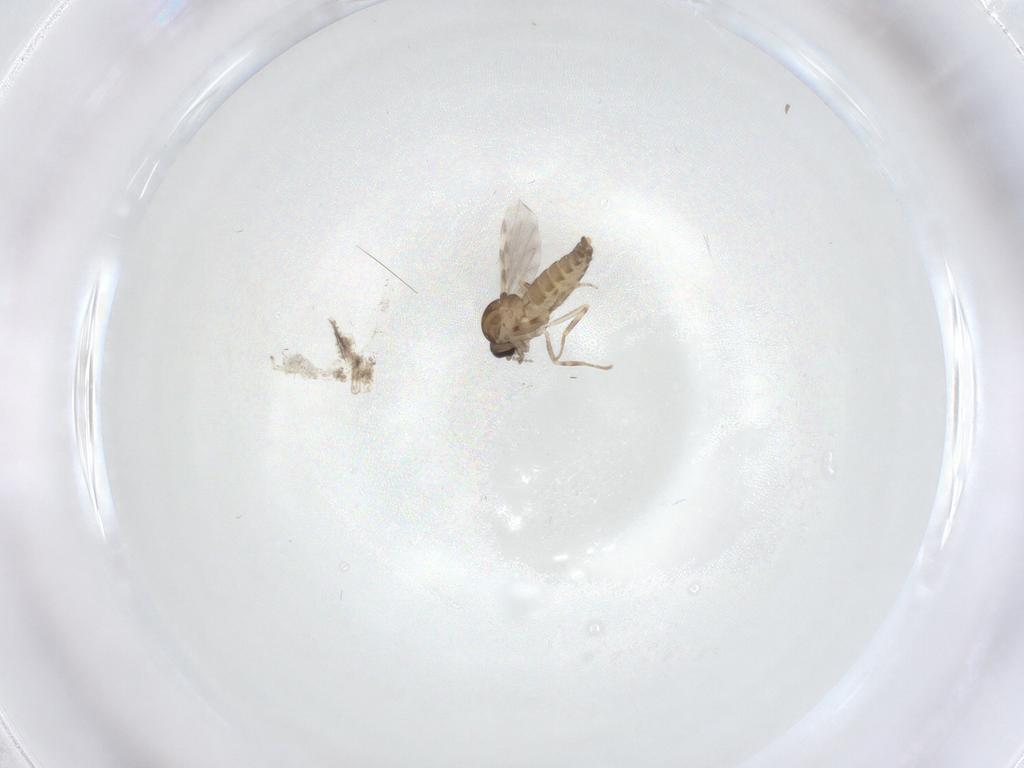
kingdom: Animalia
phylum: Arthropoda
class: Insecta
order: Diptera
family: Ceratopogonidae
